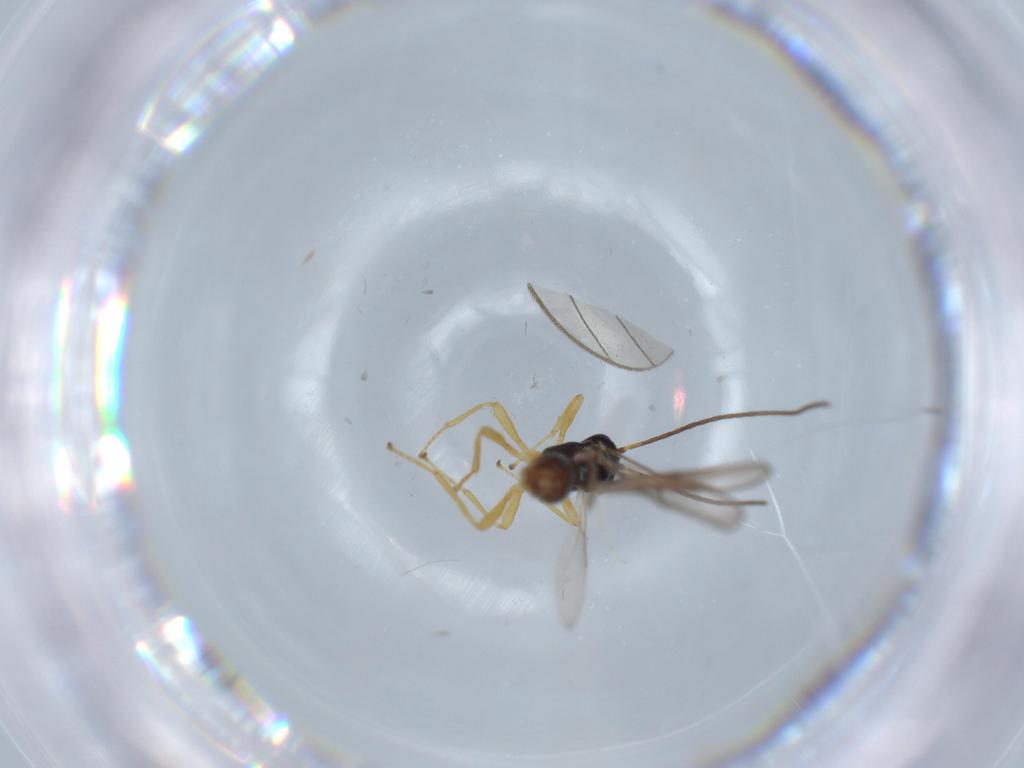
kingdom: Animalia
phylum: Arthropoda
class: Insecta
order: Hymenoptera
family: Braconidae
